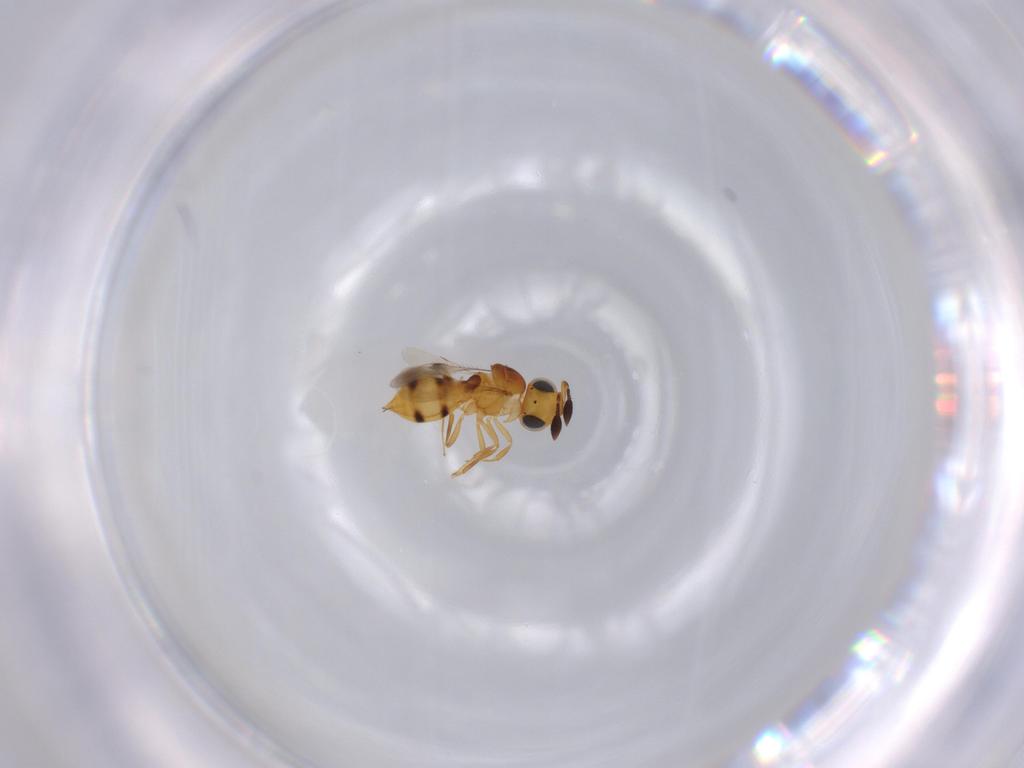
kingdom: Animalia
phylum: Arthropoda
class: Insecta
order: Hymenoptera
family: Scelionidae
